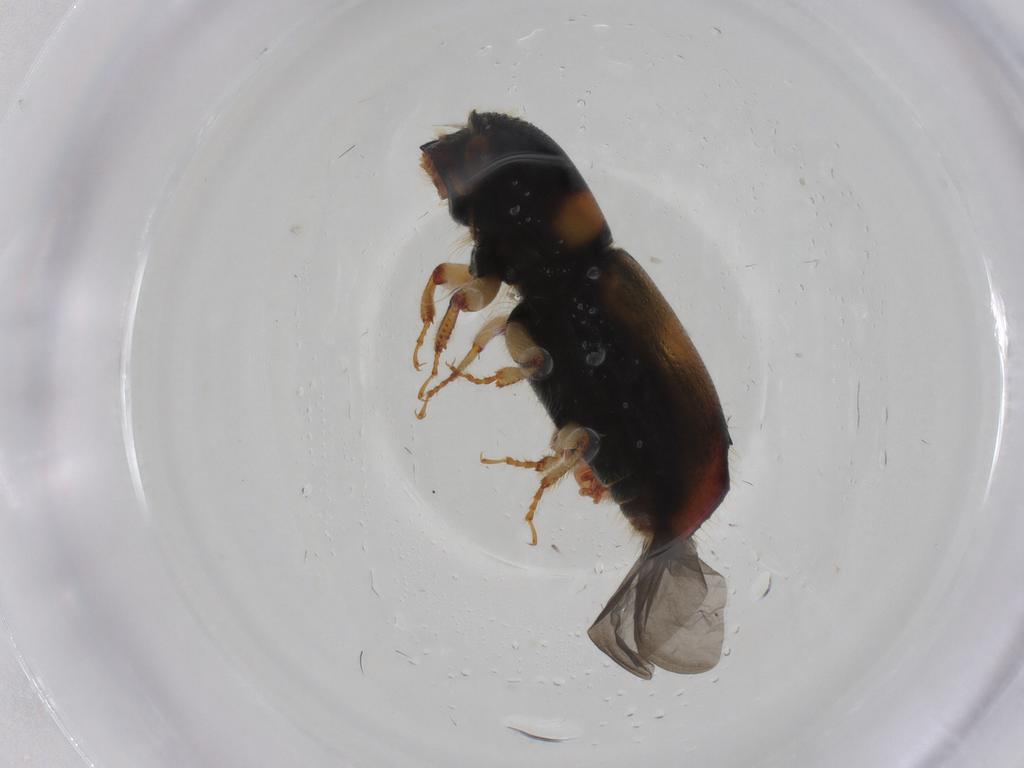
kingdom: Animalia
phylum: Arthropoda
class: Insecta
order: Coleoptera
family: Curculionidae
